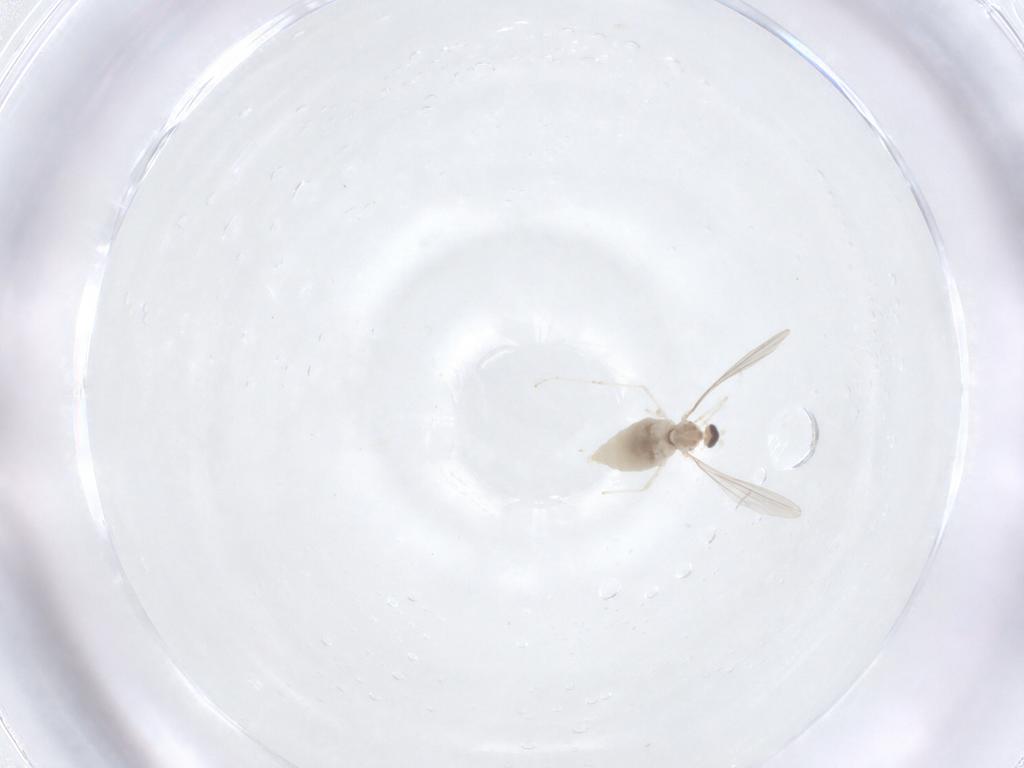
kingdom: Animalia
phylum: Arthropoda
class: Insecta
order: Diptera
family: Cecidomyiidae
